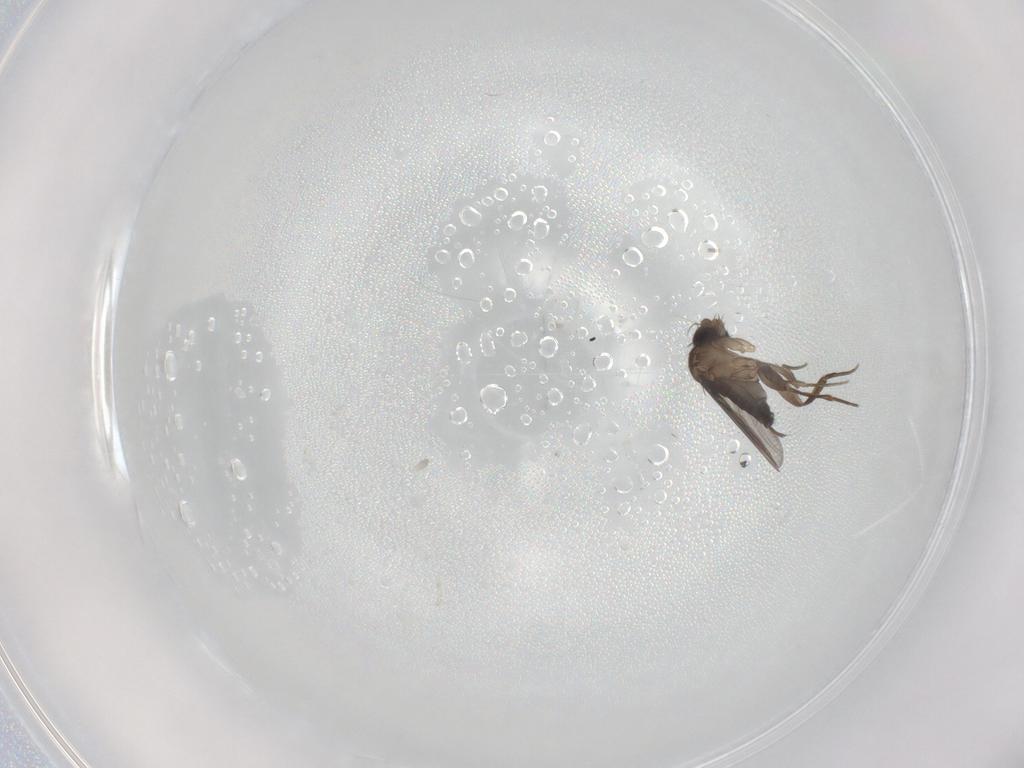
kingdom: Animalia
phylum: Arthropoda
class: Insecta
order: Diptera
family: Phoridae
